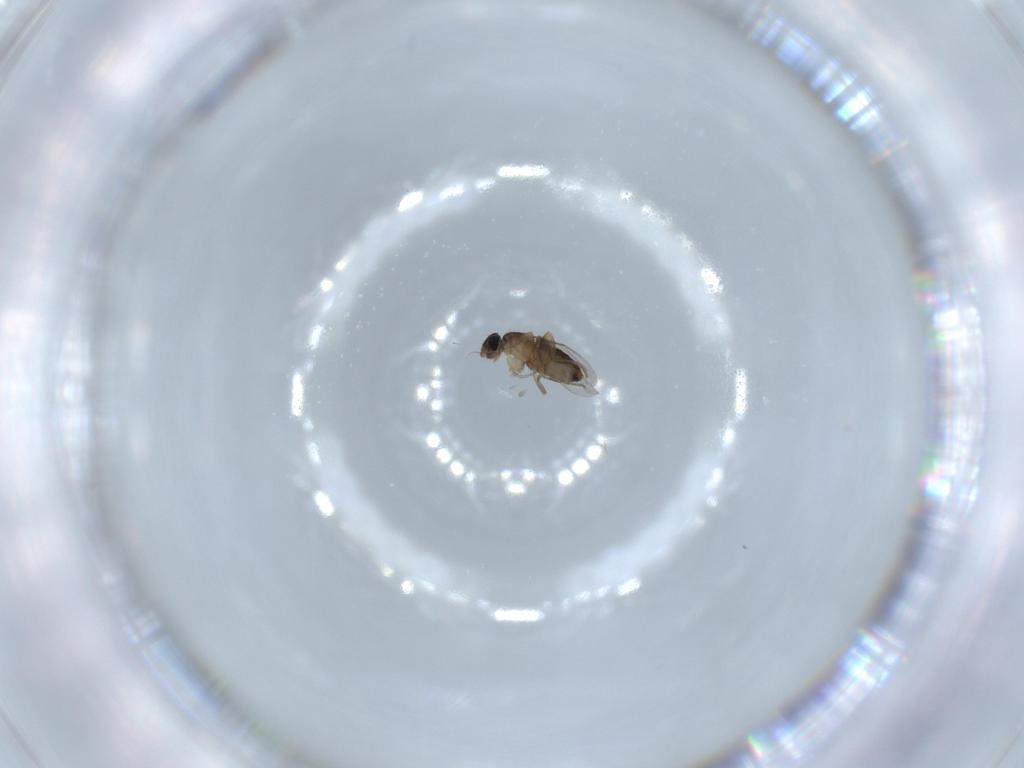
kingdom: Animalia
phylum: Arthropoda
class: Insecta
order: Diptera
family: Phoridae
